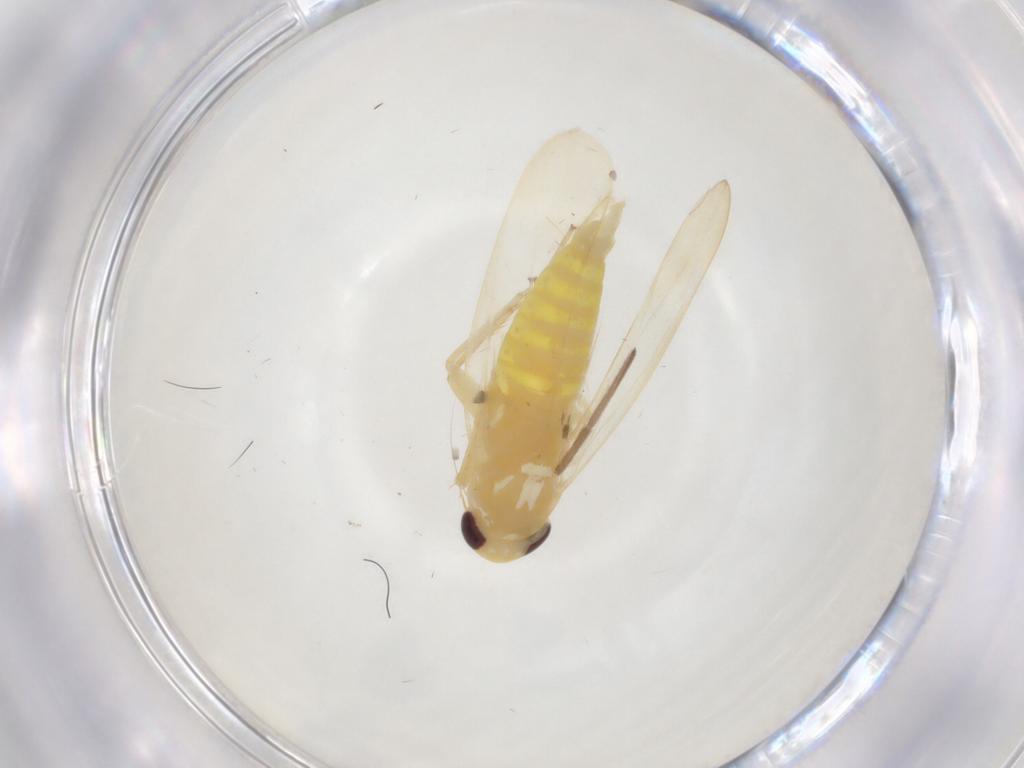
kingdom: Animalia
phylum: Arthropoda
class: Insecta
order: Hemiptera
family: Cicadellidae
